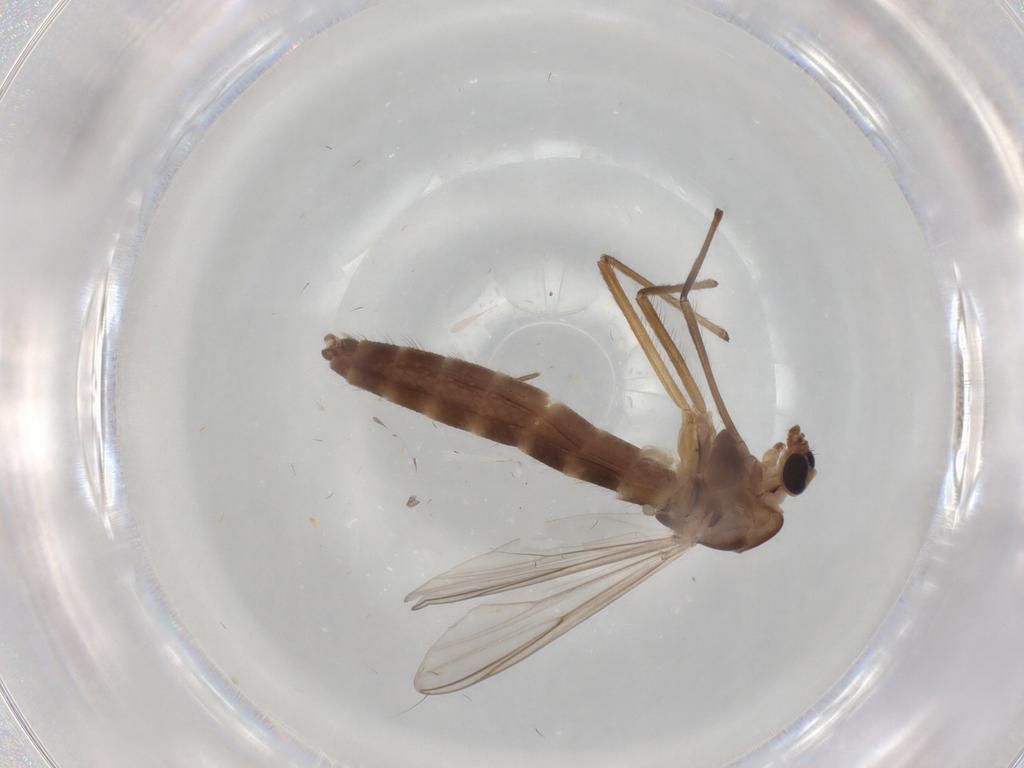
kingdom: Animalia
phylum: Arthropoda
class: Insecta
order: Diptera
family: Chironomidae
